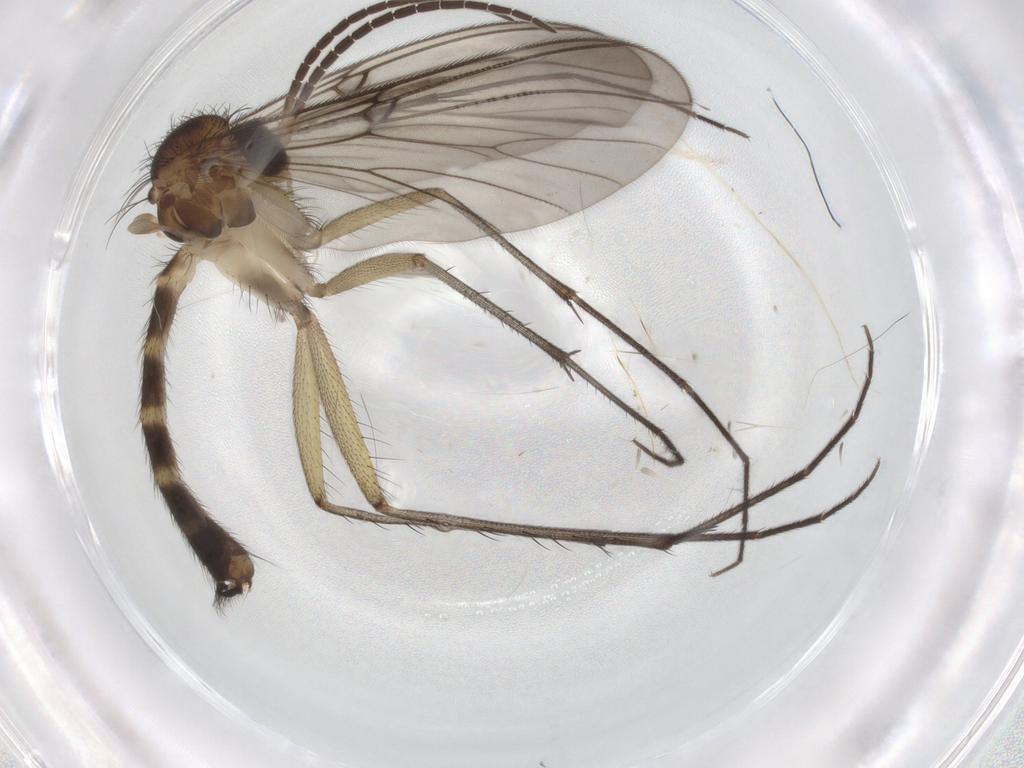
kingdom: Animalia
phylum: Arthropoda
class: Insecta
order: Diptera
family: Mycetophilidae
